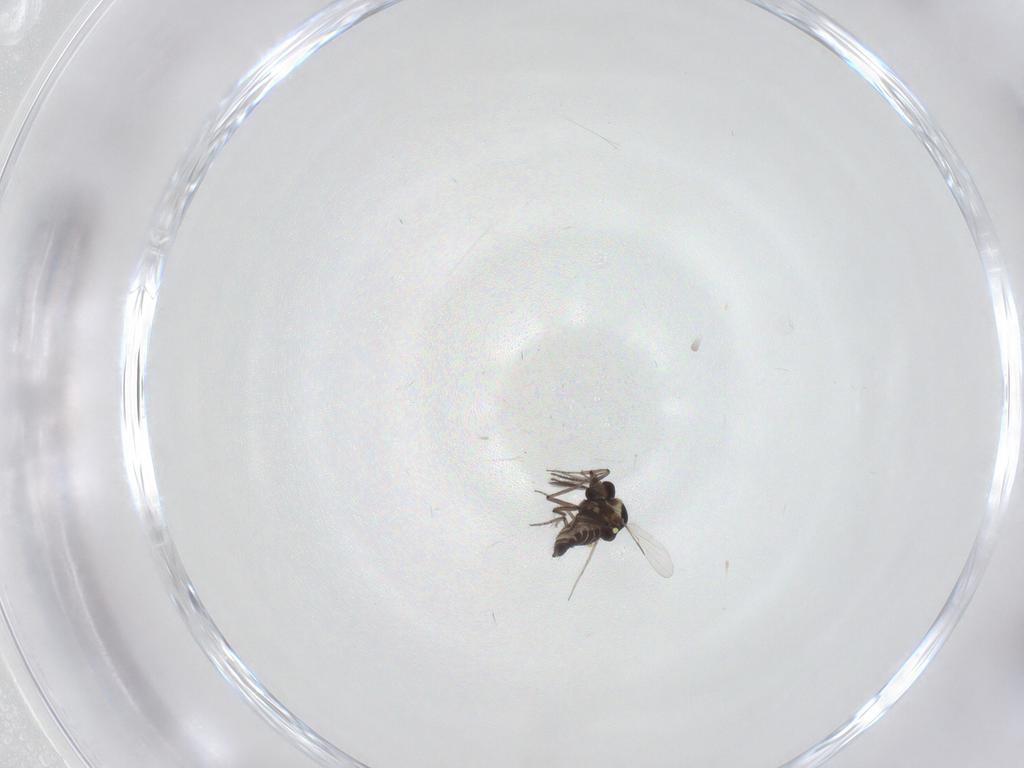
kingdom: Animalia
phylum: Arthropoda
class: Insecta
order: Diptera
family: Ceratopogonidae
